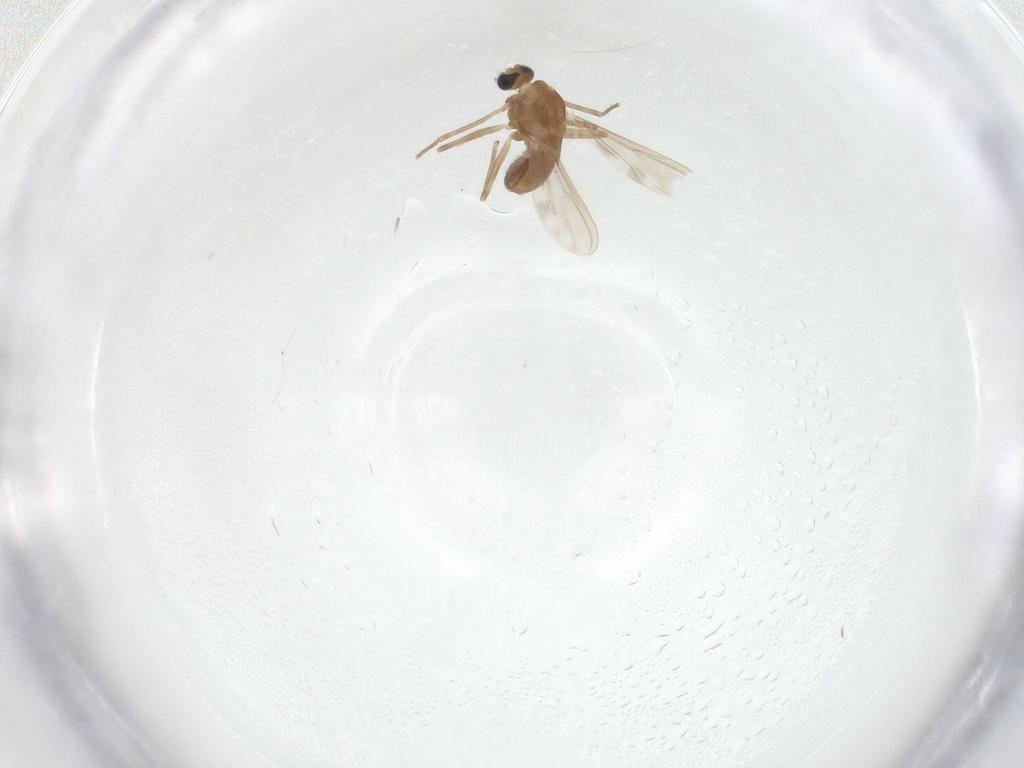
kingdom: Animalia
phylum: Arthropoda
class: Insecta
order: Diptera
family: Chironomidae
